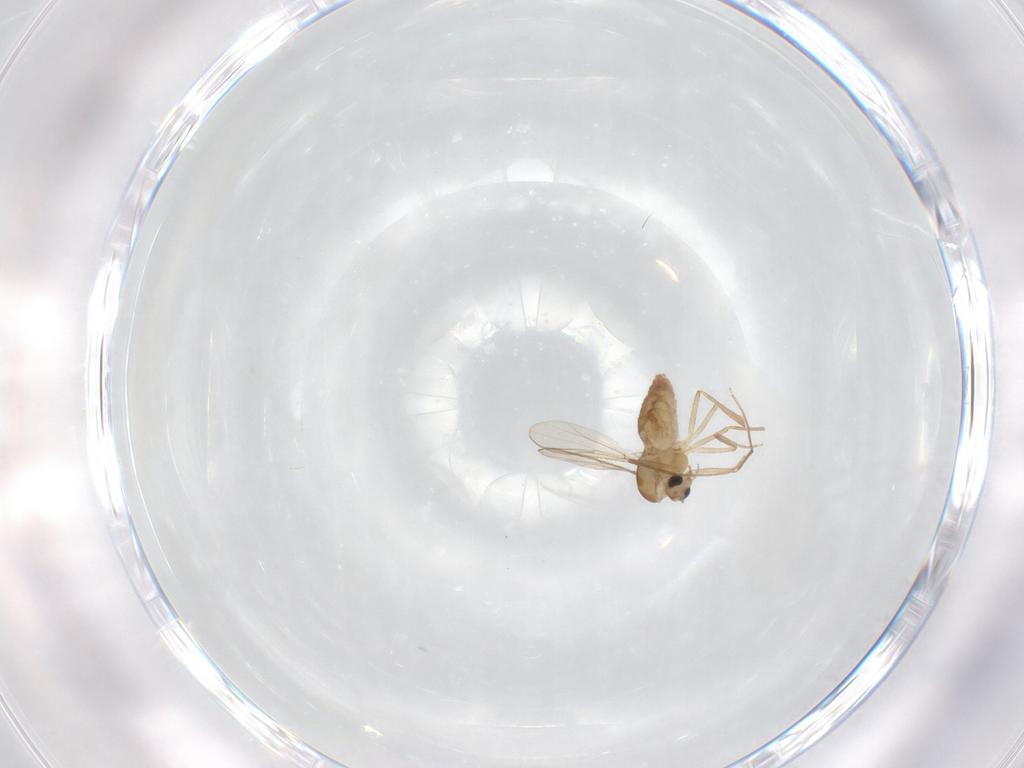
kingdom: Animalia
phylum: Arthropoda
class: Insecta
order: Diptera
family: Chironomidae
